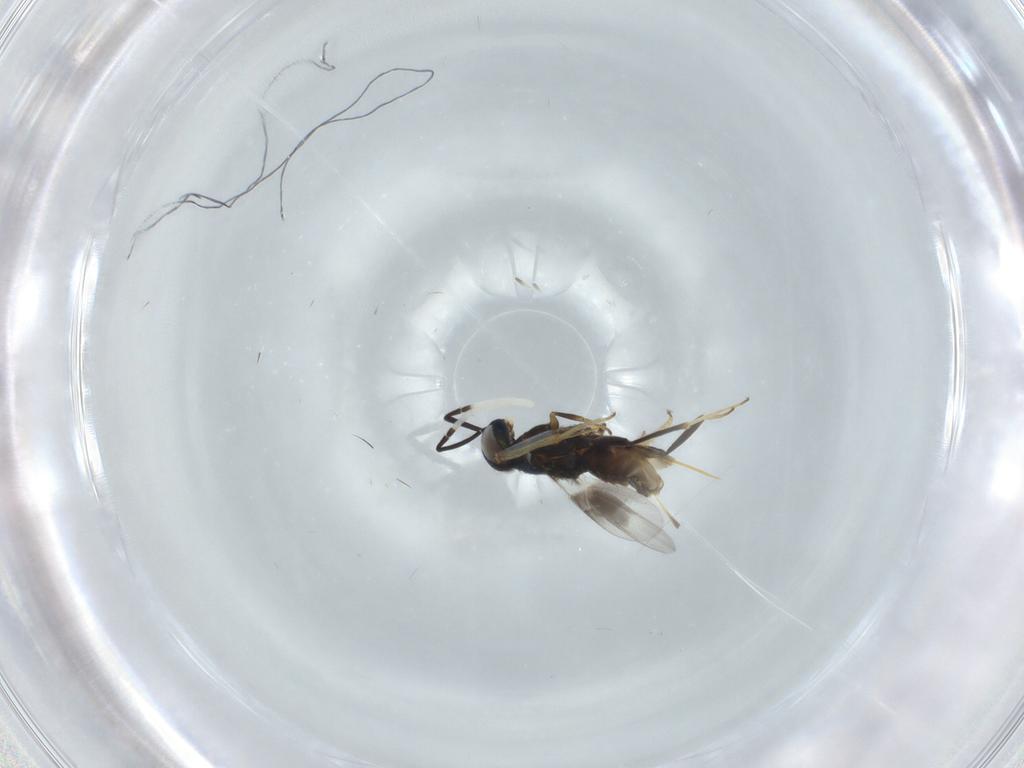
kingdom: Animalia
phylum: Arthropoda
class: Insecta
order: Hymenoptera
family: Encyrtidae
